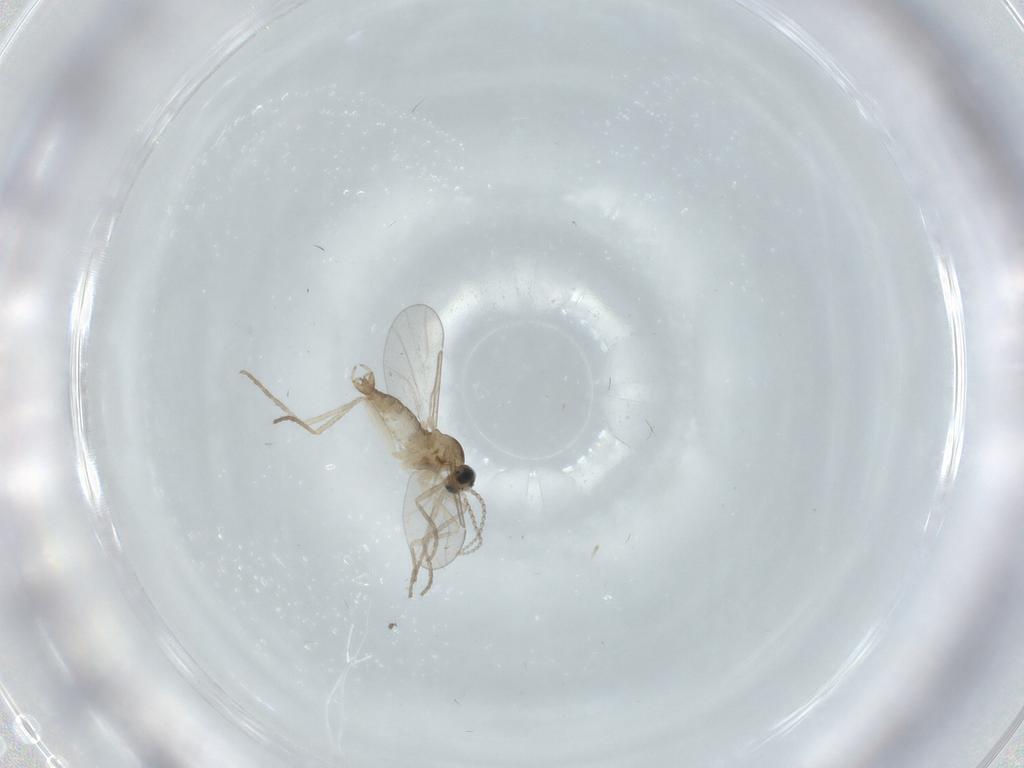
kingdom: Animalia
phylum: Arthropoda
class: Insecta
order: Diptera
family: Cecidomyiidae
